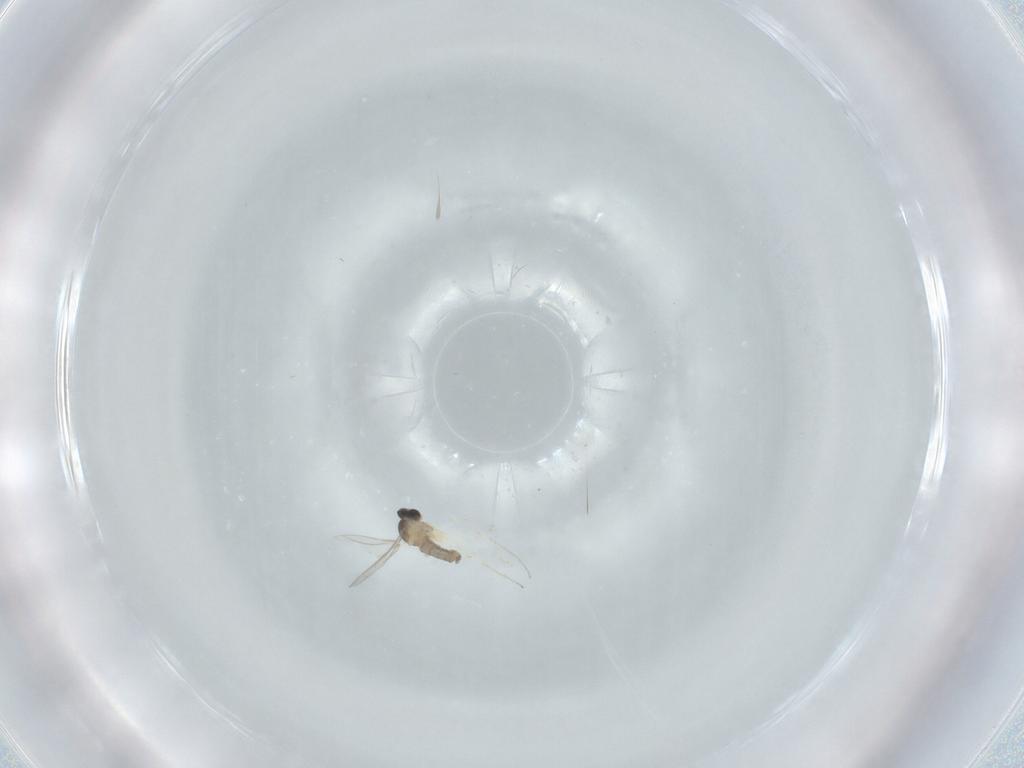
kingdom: Animalia
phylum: Arthropoda
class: Insecta
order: Diptera
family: Cecidomyiidae
